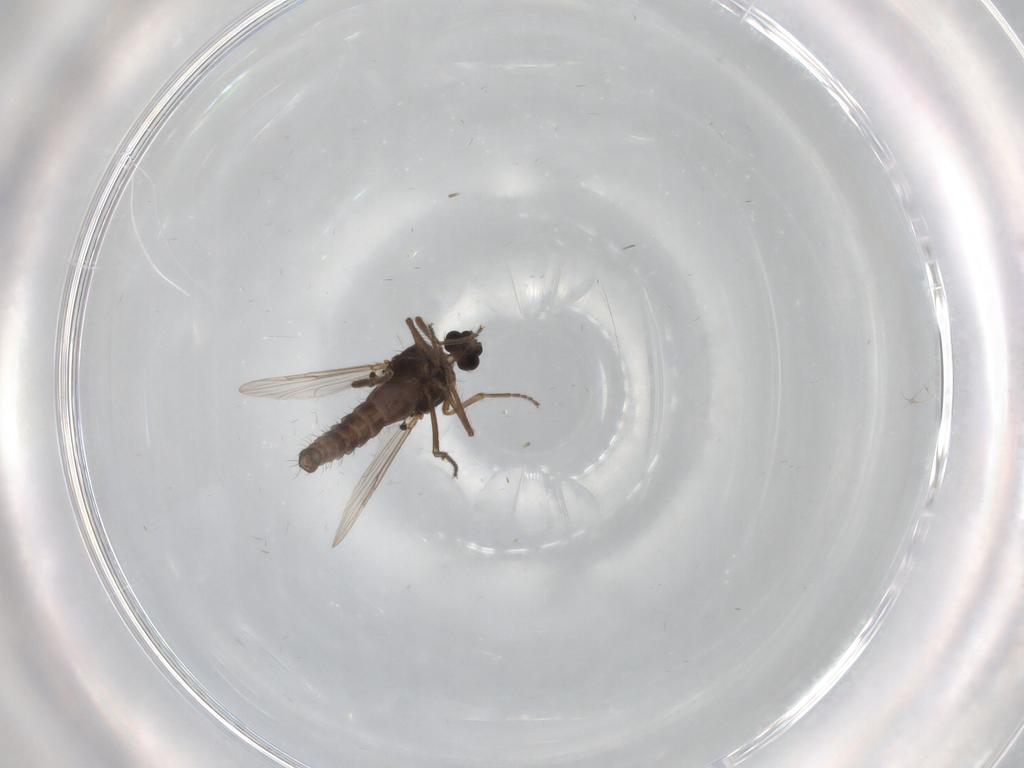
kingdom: Animalia
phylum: Arthropoda
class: Insecta
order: Diptera
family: Ceratopogonidae
